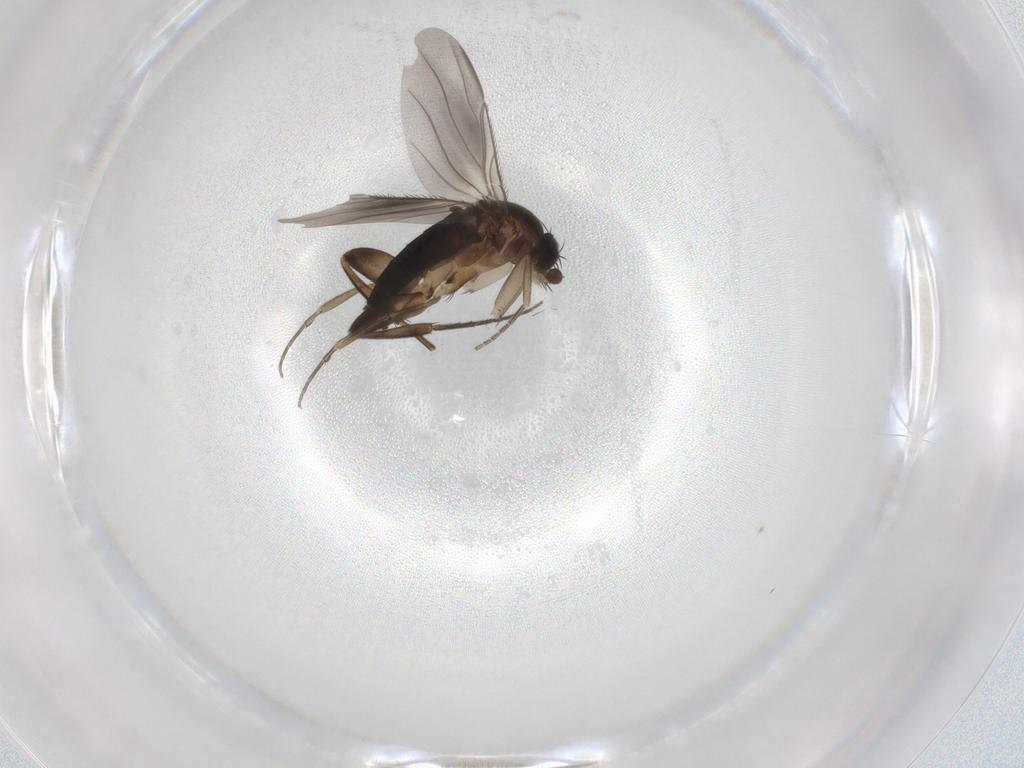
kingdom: Animalia
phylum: Arthropoda
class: Insecta
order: Diptera
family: Phoridae
